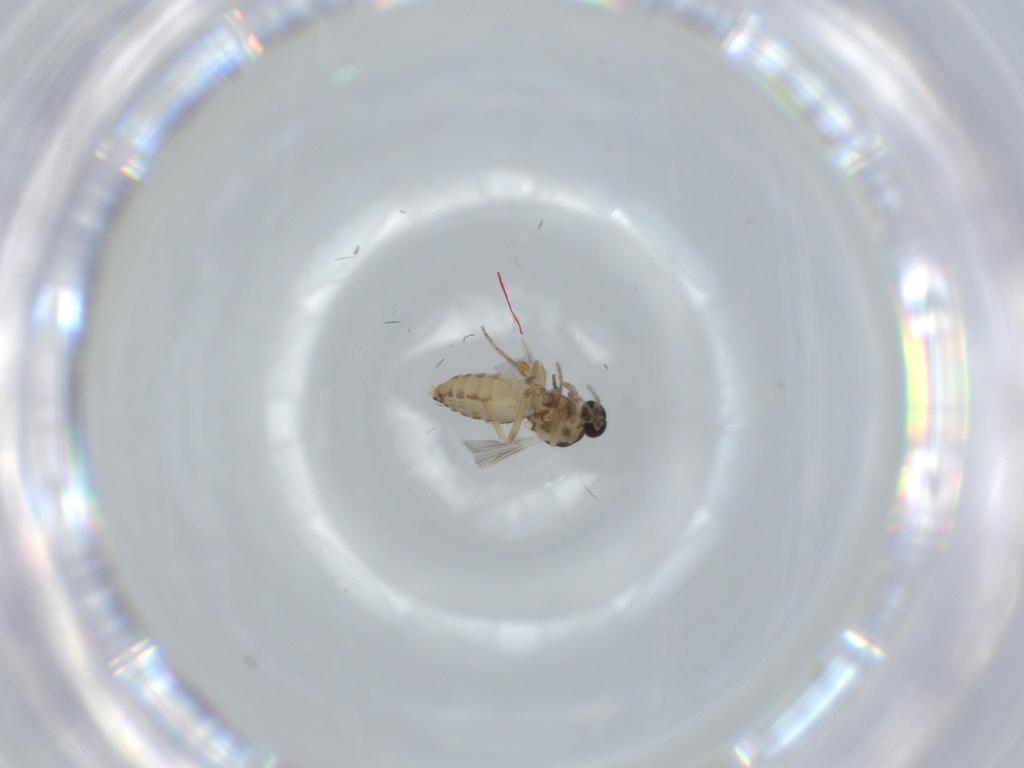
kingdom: Animalia
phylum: Arthropoda
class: Insecta
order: Diptera
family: Ceratopogonidae
